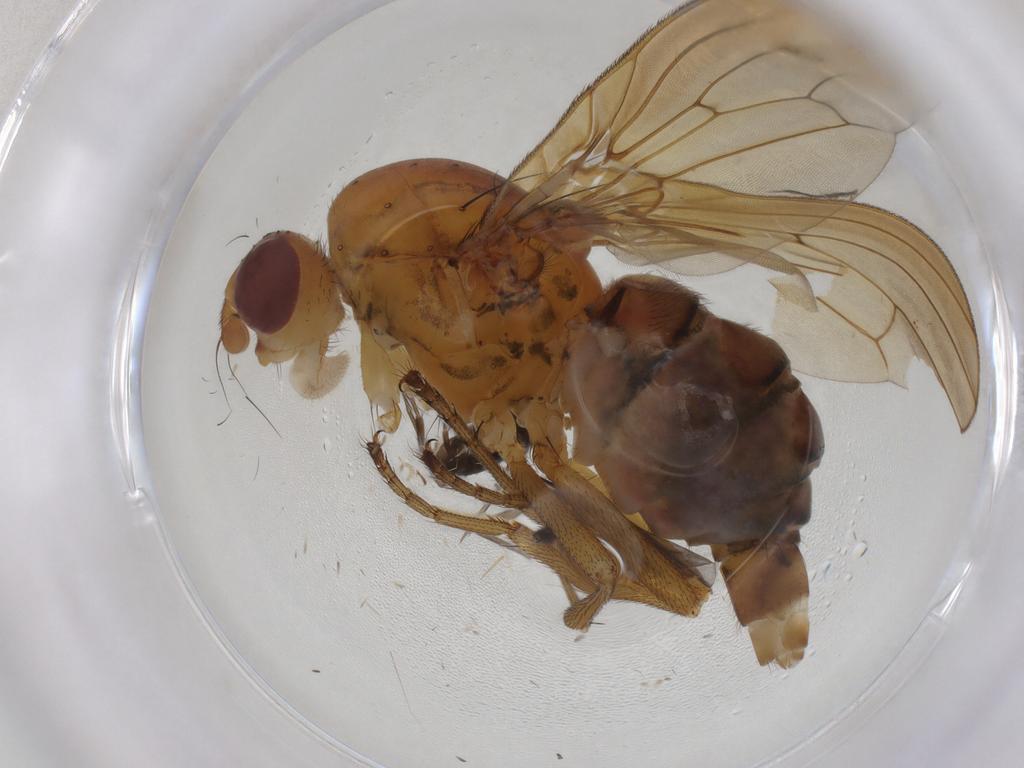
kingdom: Animalia
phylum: Arthropoda
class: Insecta
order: Diptera
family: Phoridae
